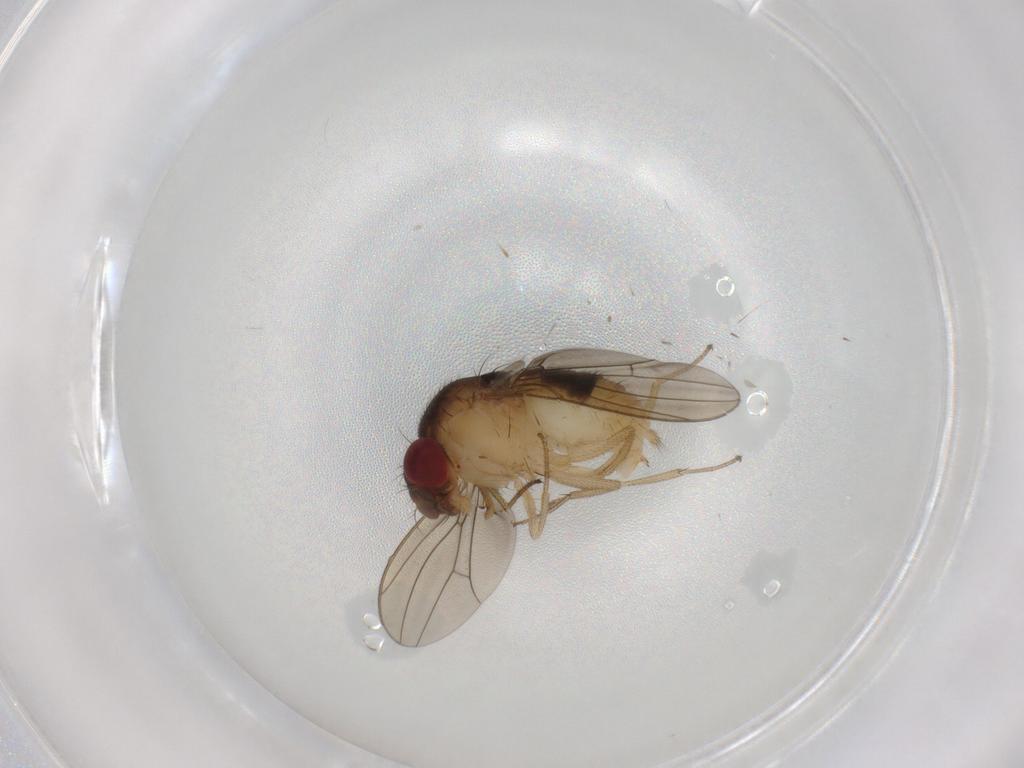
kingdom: Animalia
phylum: Arthropoda
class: Insecta
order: Diptera
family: Drosophilidae
